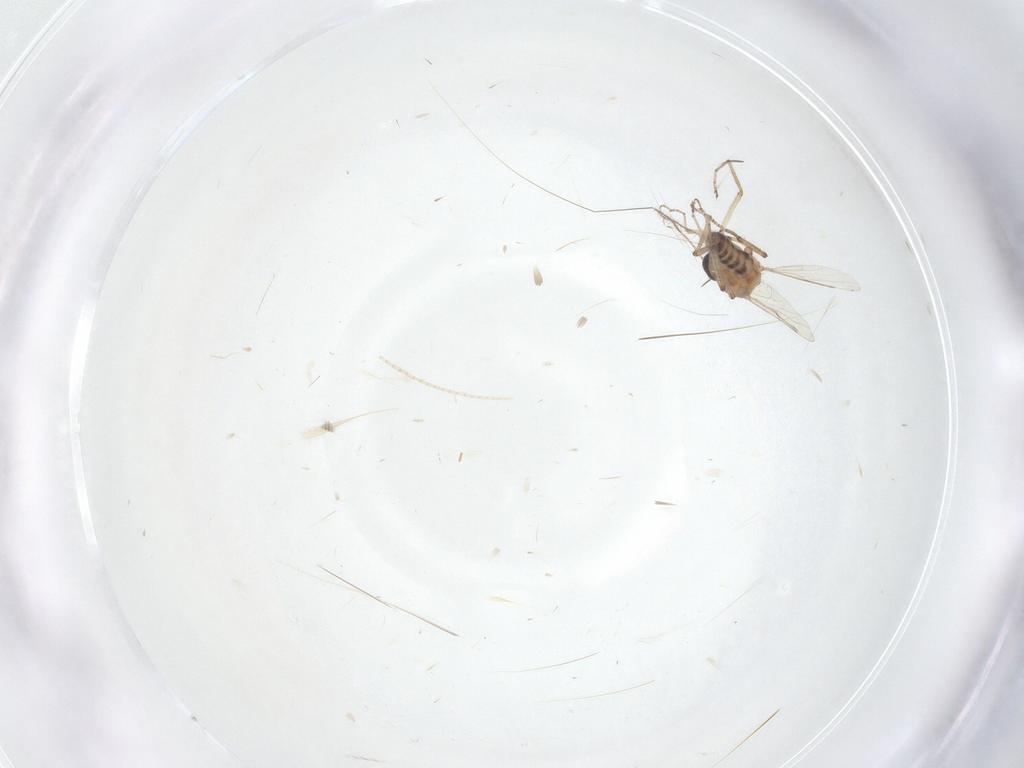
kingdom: Animalia
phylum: Arthropoda
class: Insecta
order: Diptera
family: Ceratopogonidae
